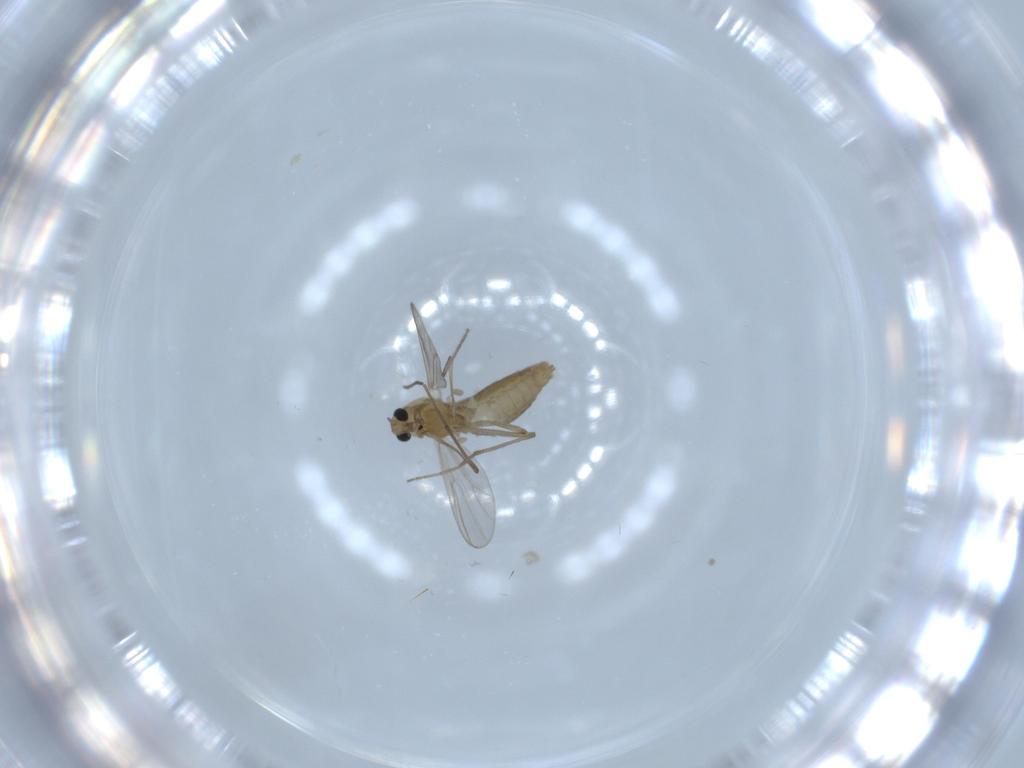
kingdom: Animalia
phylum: Arthropoda
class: Insecta
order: Diptera
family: Chironomidae
